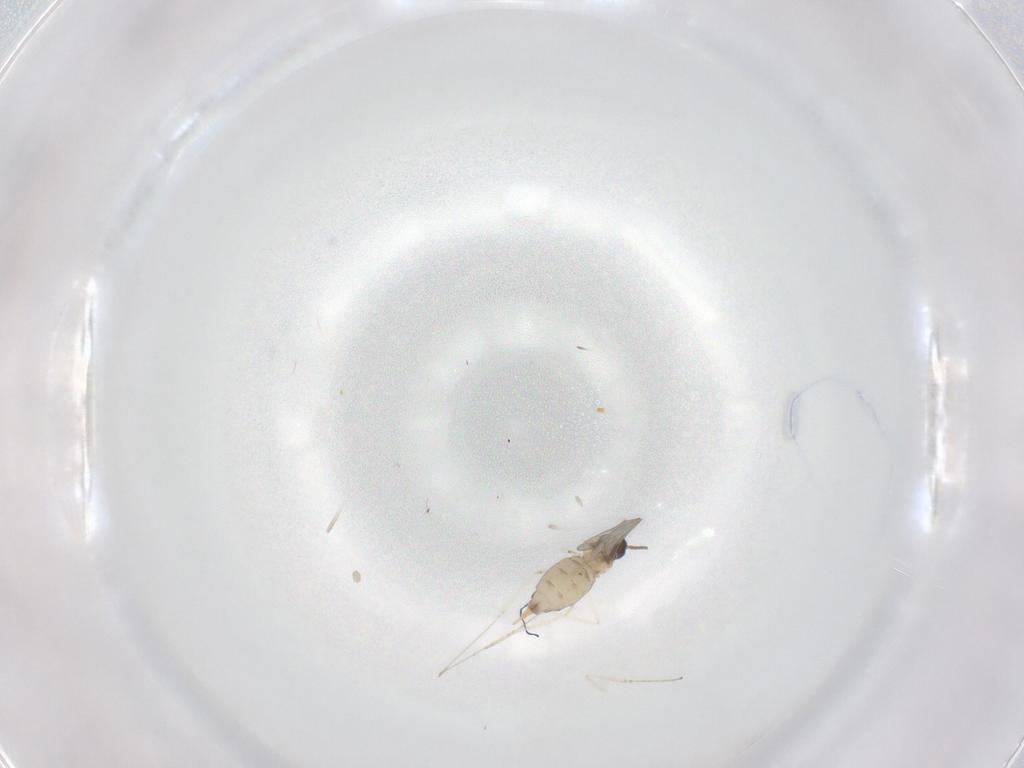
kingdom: Animalia
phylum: Arthropoda
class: Insecta
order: Diptera
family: Cecidomyiidae
